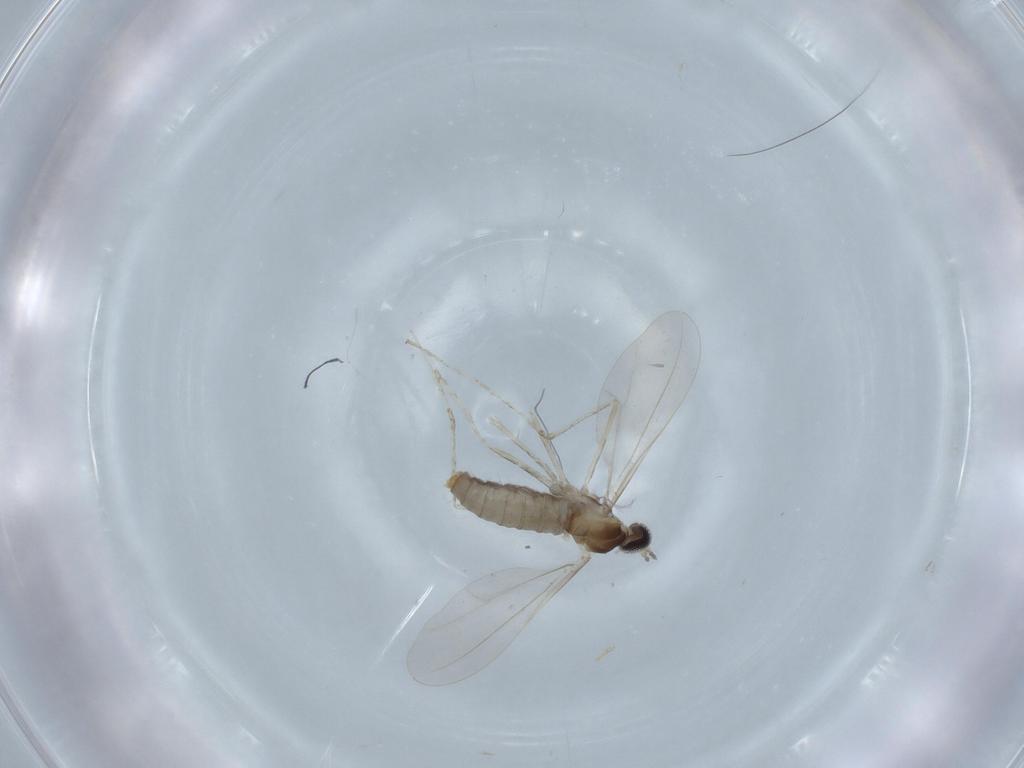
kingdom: Animalia
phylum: Arthropoda
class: Insecta
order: Diptera
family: Cecidomyiidae
